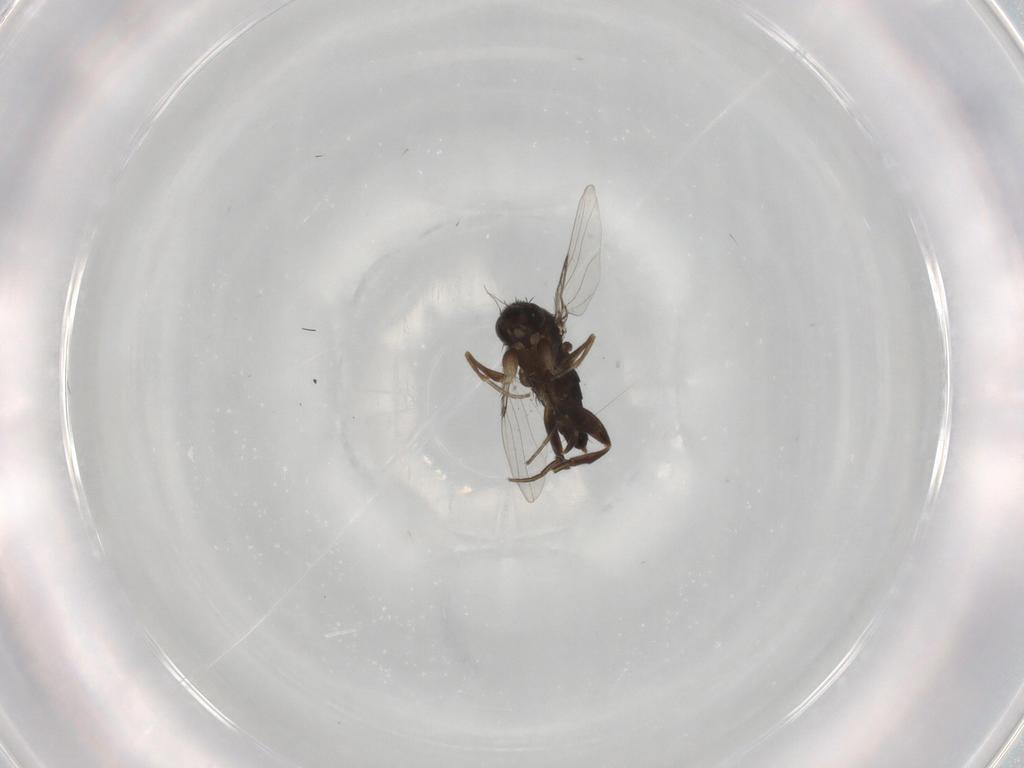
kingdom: Animalia
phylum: Arthropoda
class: Insecta
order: Diptera
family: Phoridae
